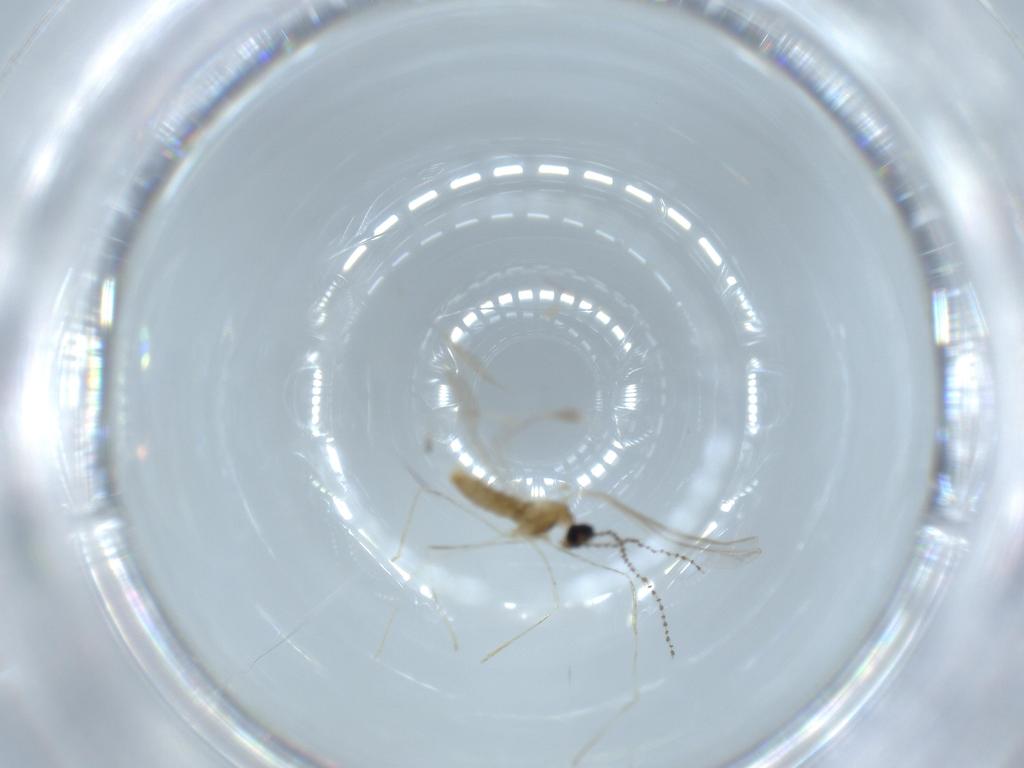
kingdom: Animalia
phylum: Arthropoda
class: Insecta
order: Diptera
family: Cecidomyiidae
